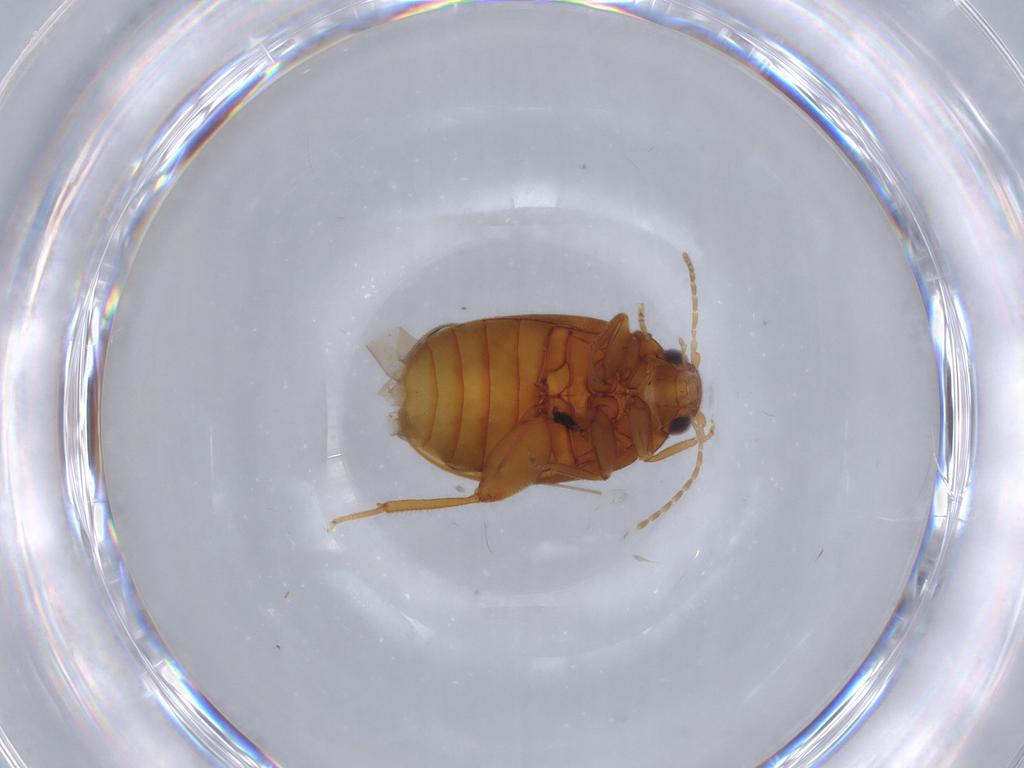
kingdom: Animalia
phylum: Arthropoda
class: Insecta
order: Coleoptera
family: Scirtidae
